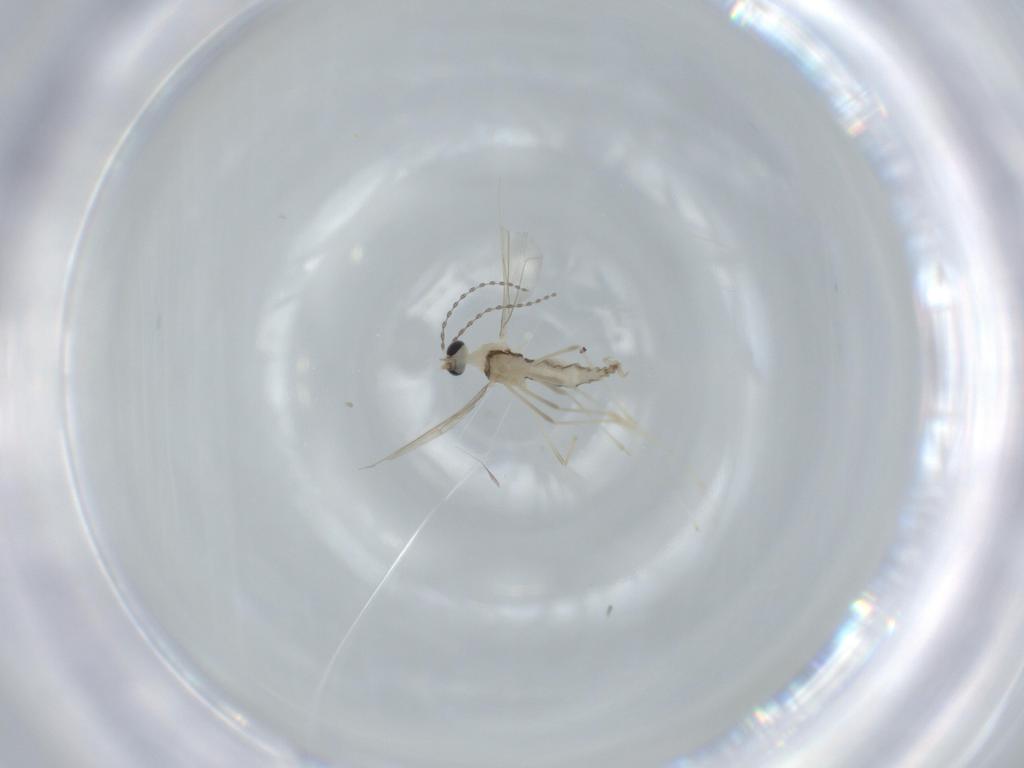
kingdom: Animalia
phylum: Arthropoda
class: Insecta
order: Diptera
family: Cecidomyiidae
